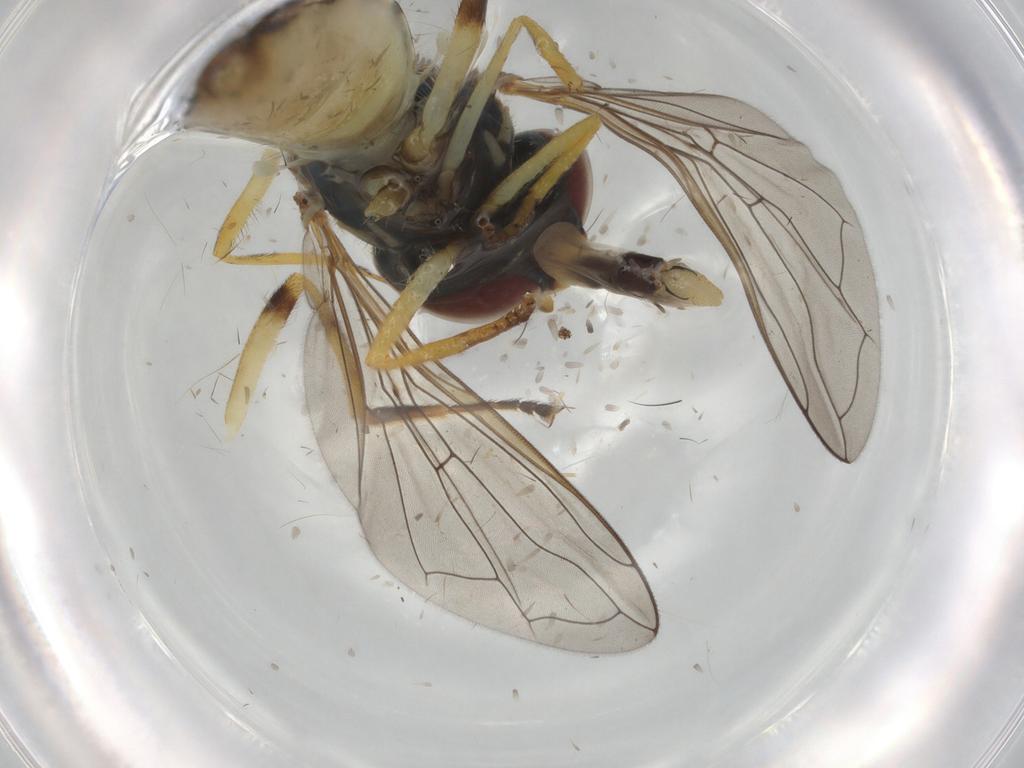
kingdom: Animalia
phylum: Arthropoda
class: Insecta
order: Diptera
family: Syrphidae
